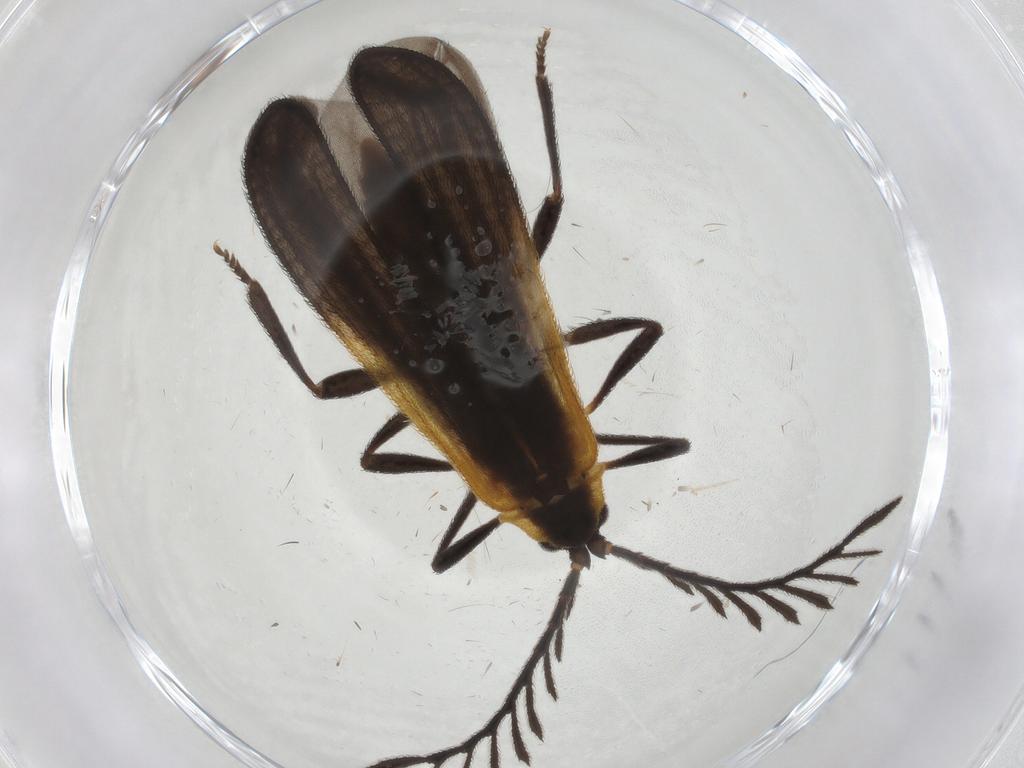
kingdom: Animalia
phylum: Arthropoda
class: Insecta
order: Coleoptera
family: Lycidae
